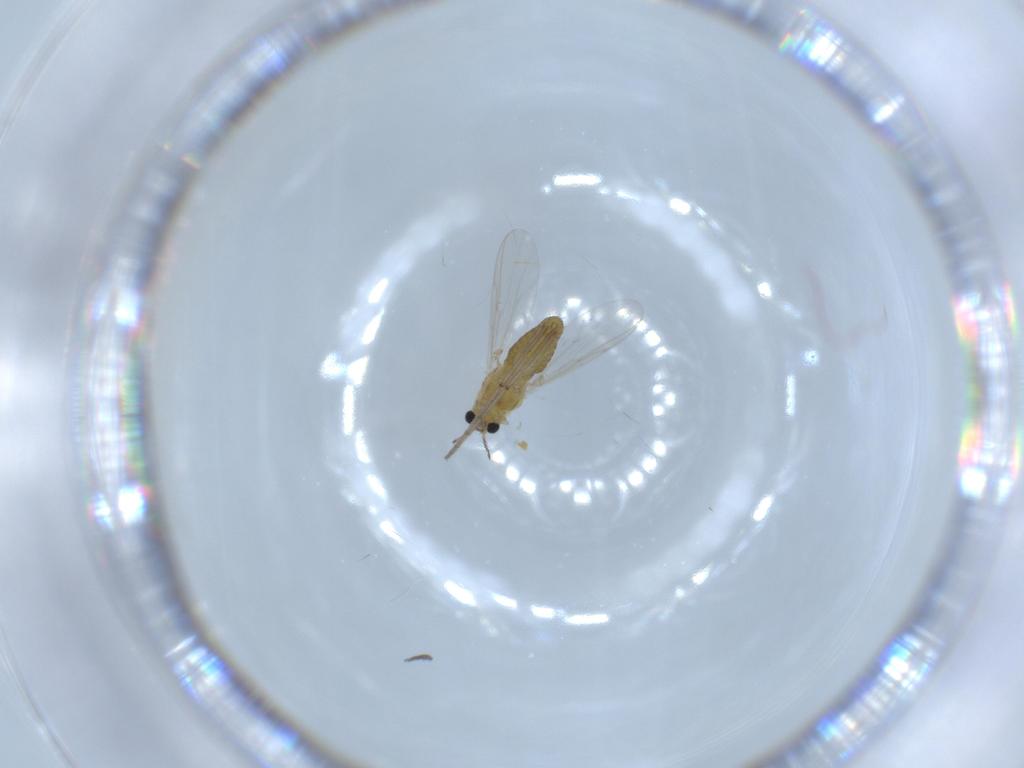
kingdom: Animalia
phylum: Arthropoda
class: Insecta
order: Diptera
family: Chironomidae
